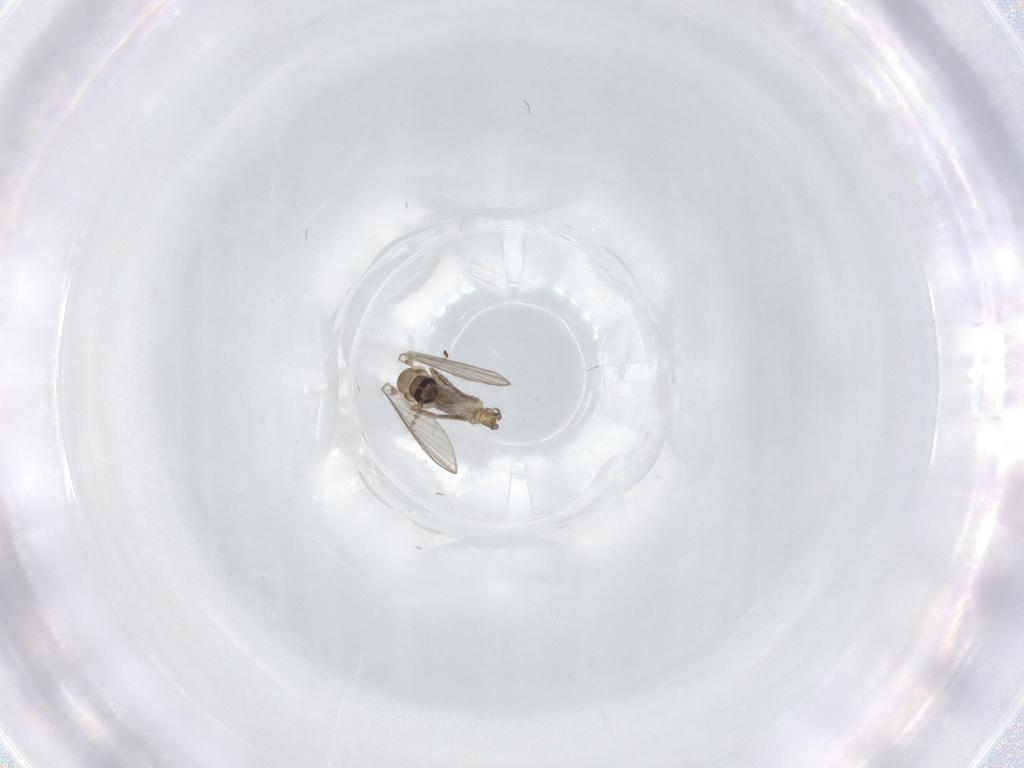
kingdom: Animalia
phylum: Arthropoda
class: Insecta
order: Diptera
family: Psychodidae
